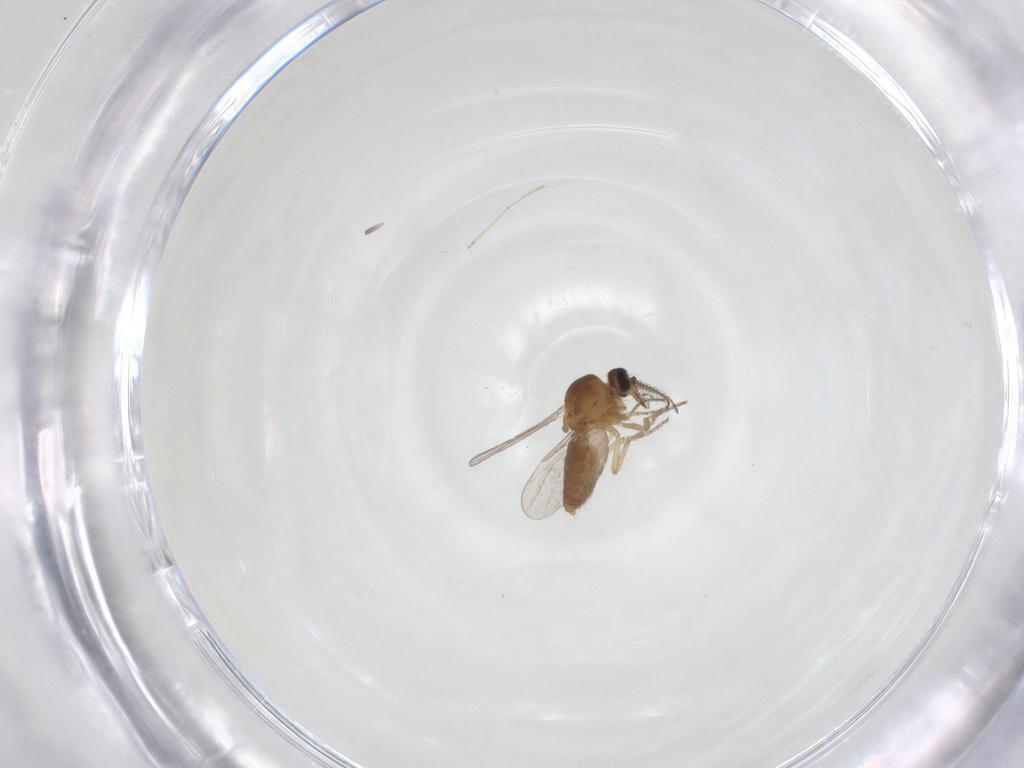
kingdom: Animalia
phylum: Arthropoda
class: Insecta
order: Diptera
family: Ceratopogonidae
